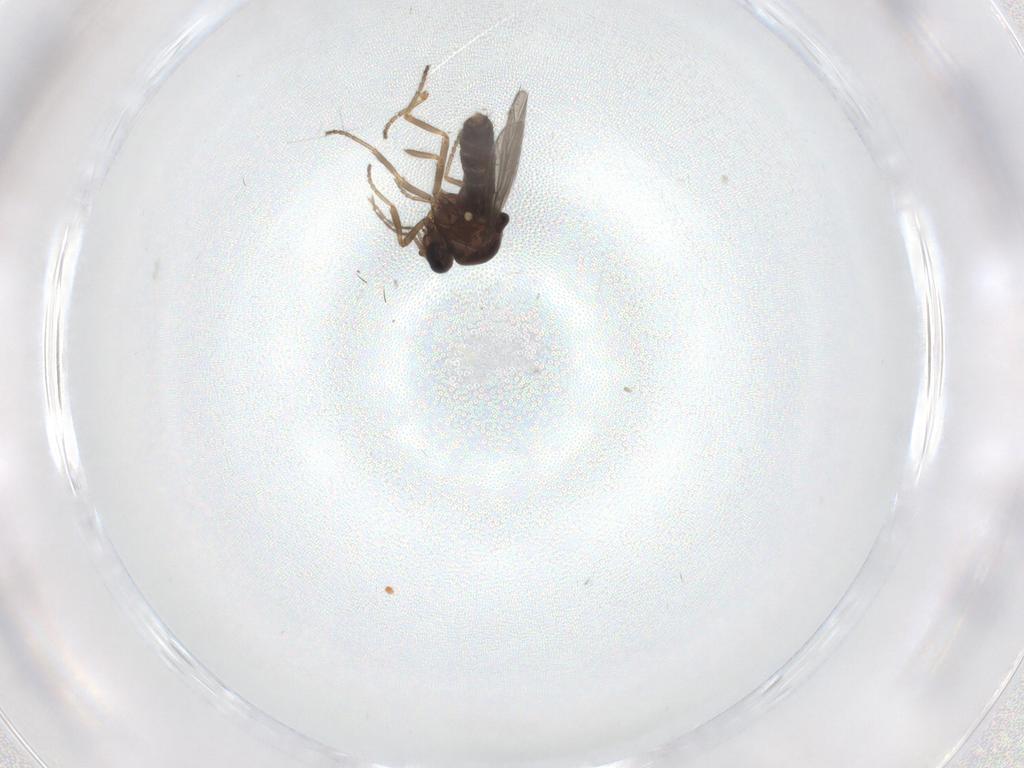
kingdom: Animalia
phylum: Arthropoda
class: Insecta
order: Diptera
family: Ceratopogonidae
